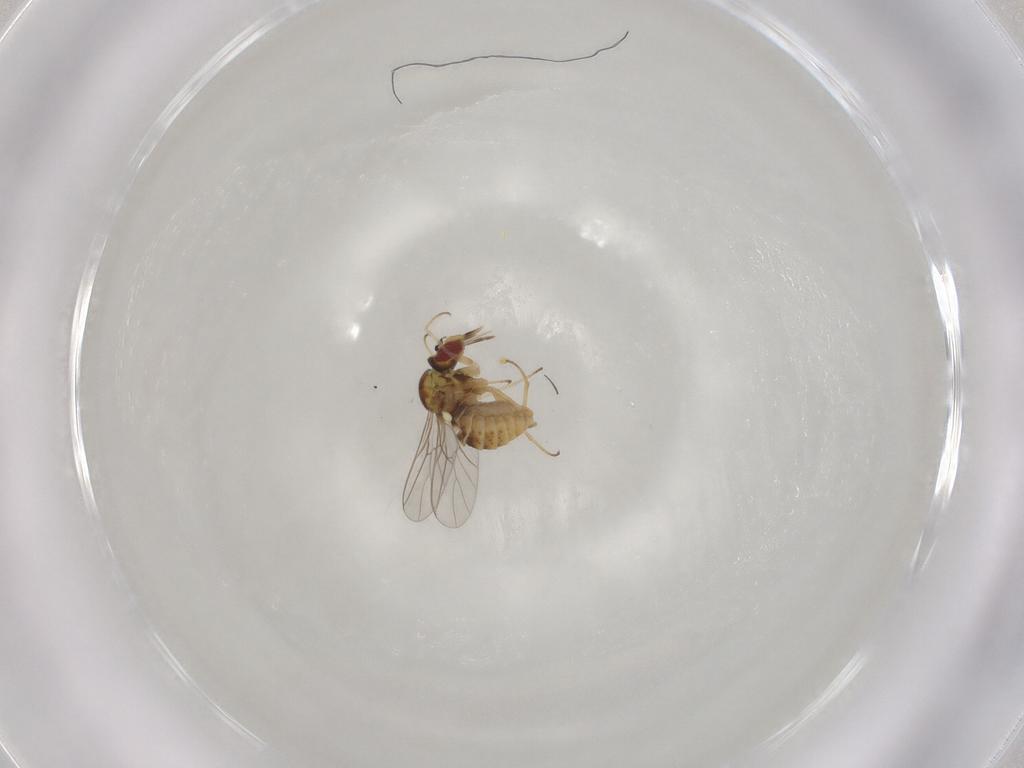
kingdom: Animalia
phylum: Arthropoda
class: Insecta
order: Diptera
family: Mythicomyiidae
